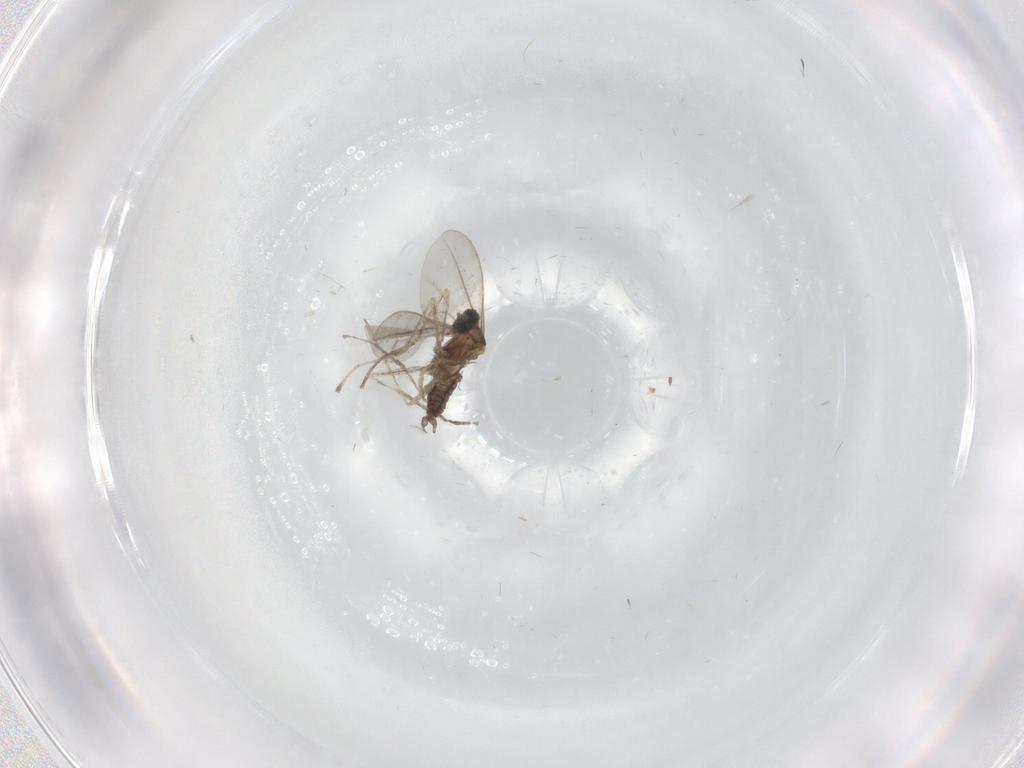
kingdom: Animalia
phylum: Arthropoda
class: Insecta
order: Diptera
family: Cecidomyiidae
